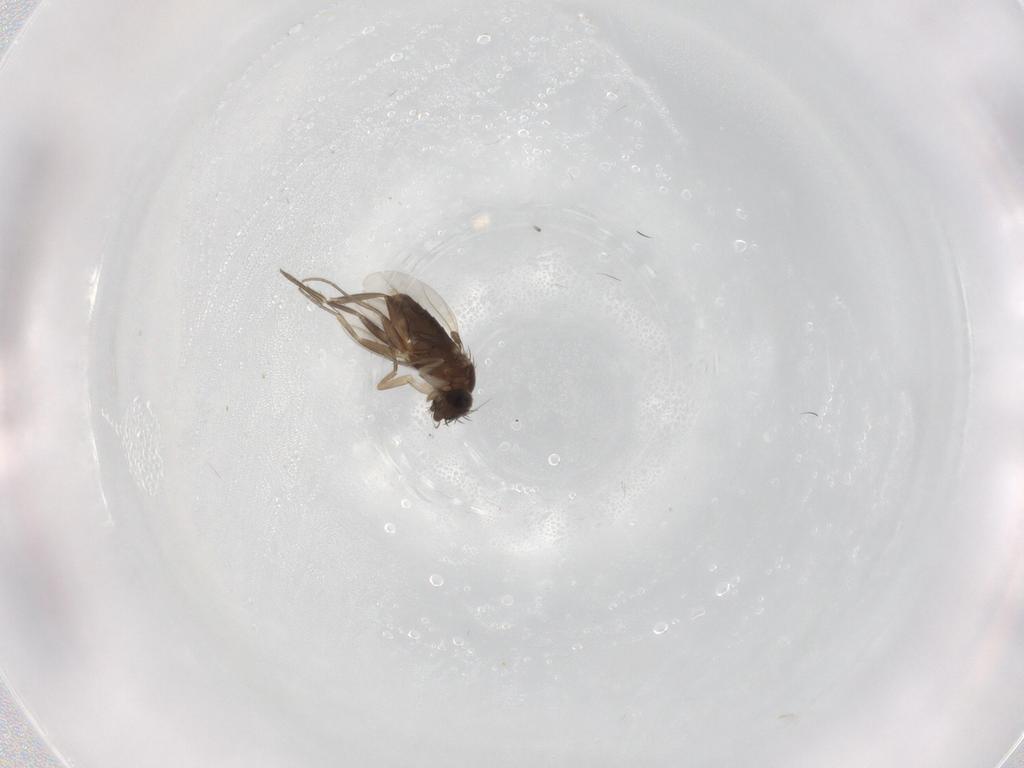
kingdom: Animalia
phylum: Arthropoda
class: Insecta
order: Diptera
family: Phoridae
